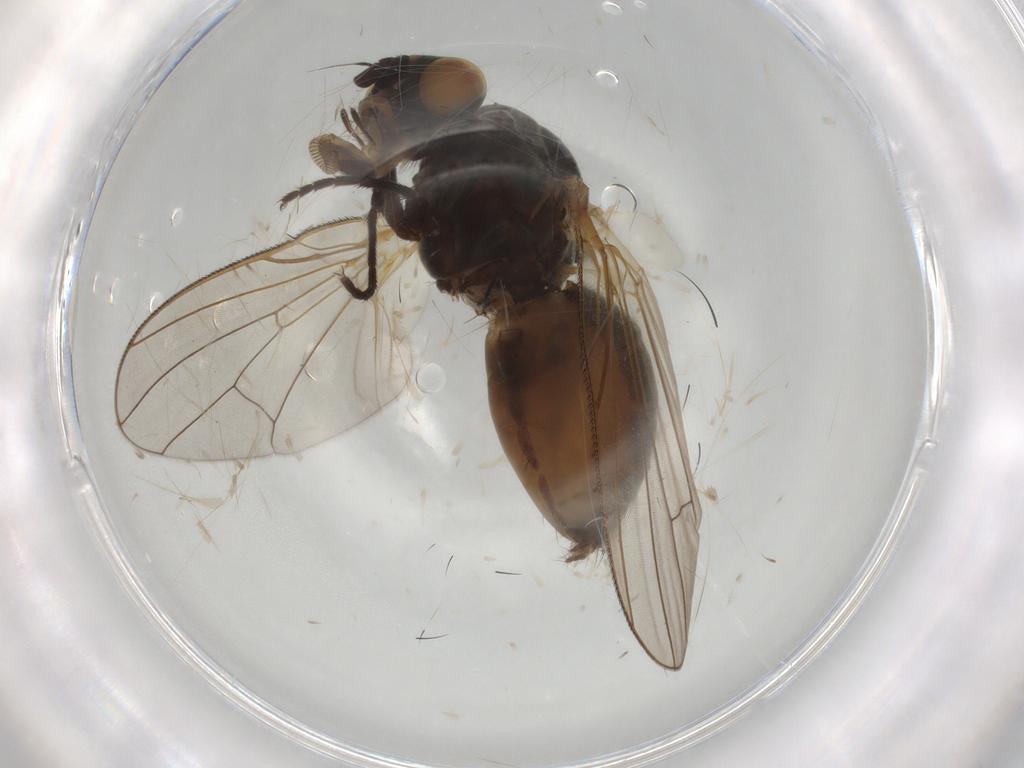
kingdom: Animalia
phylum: Arthropoda
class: Insecta
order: Diptera
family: Anthomyiidae
